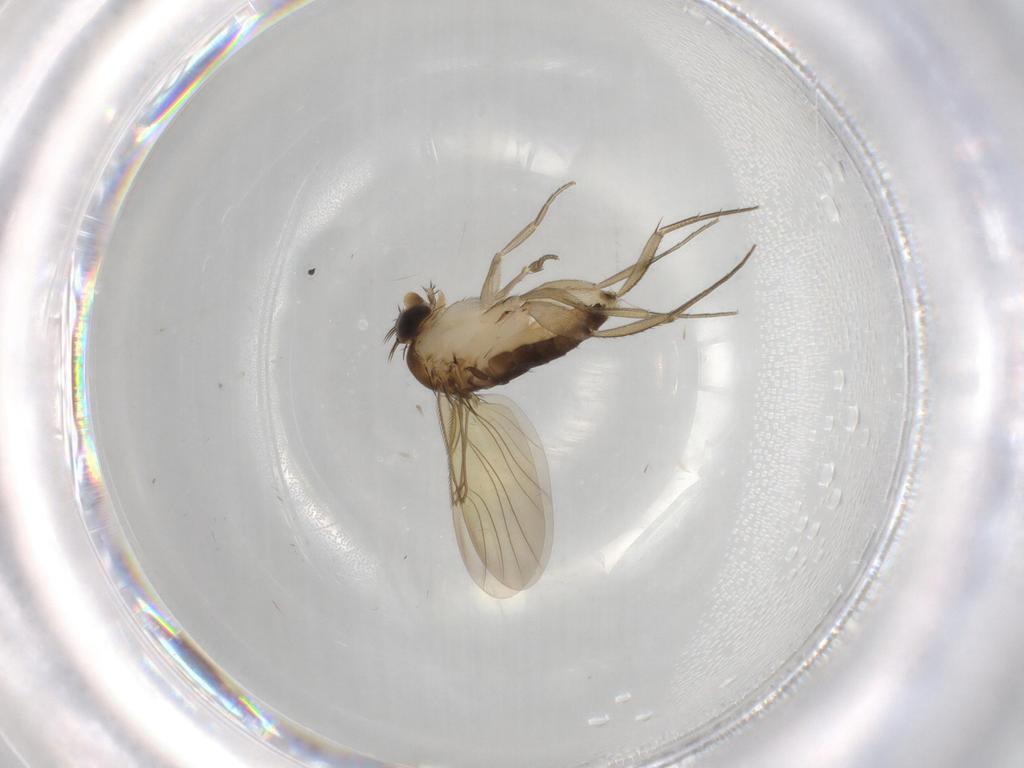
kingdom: Animalia
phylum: Arthropoda
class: Insecta
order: Diptera
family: Phoridae
